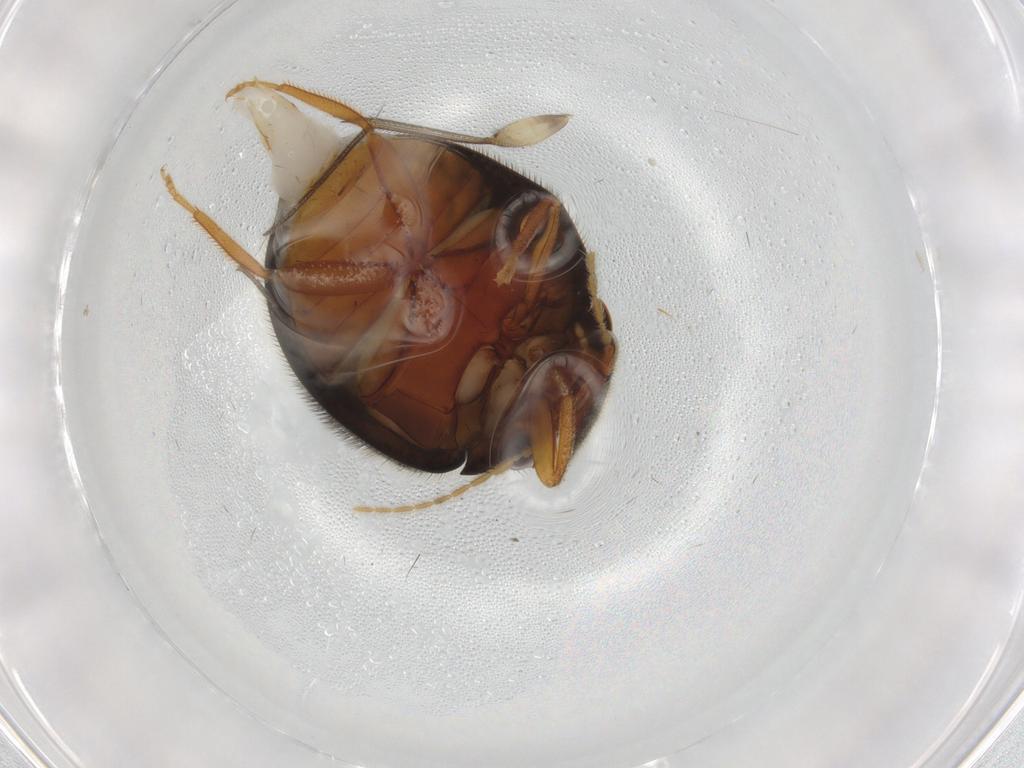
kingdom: Animalia
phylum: Arthropoda
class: Insecta
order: Coleoptera
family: Scirtidae
